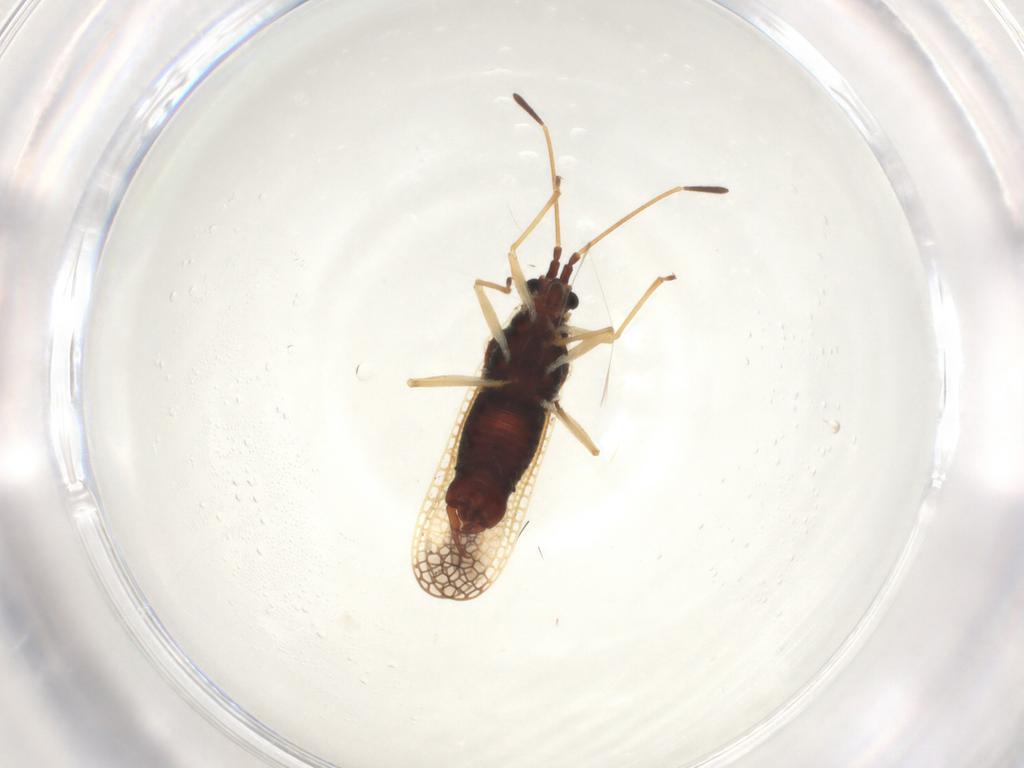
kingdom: Animalia
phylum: Arthropoda
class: Insecta
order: Hemiptera
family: Tingidae
